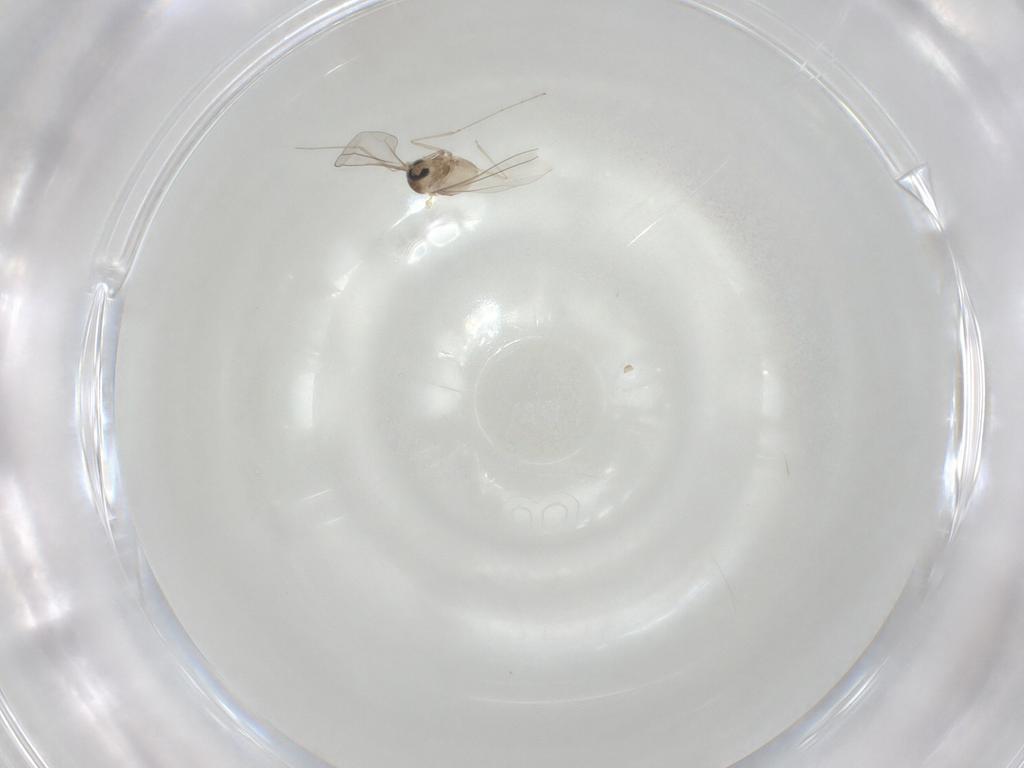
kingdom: Animalia
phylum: Arthropoda
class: Insecta
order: Diptera
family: Cecidomyiidae
